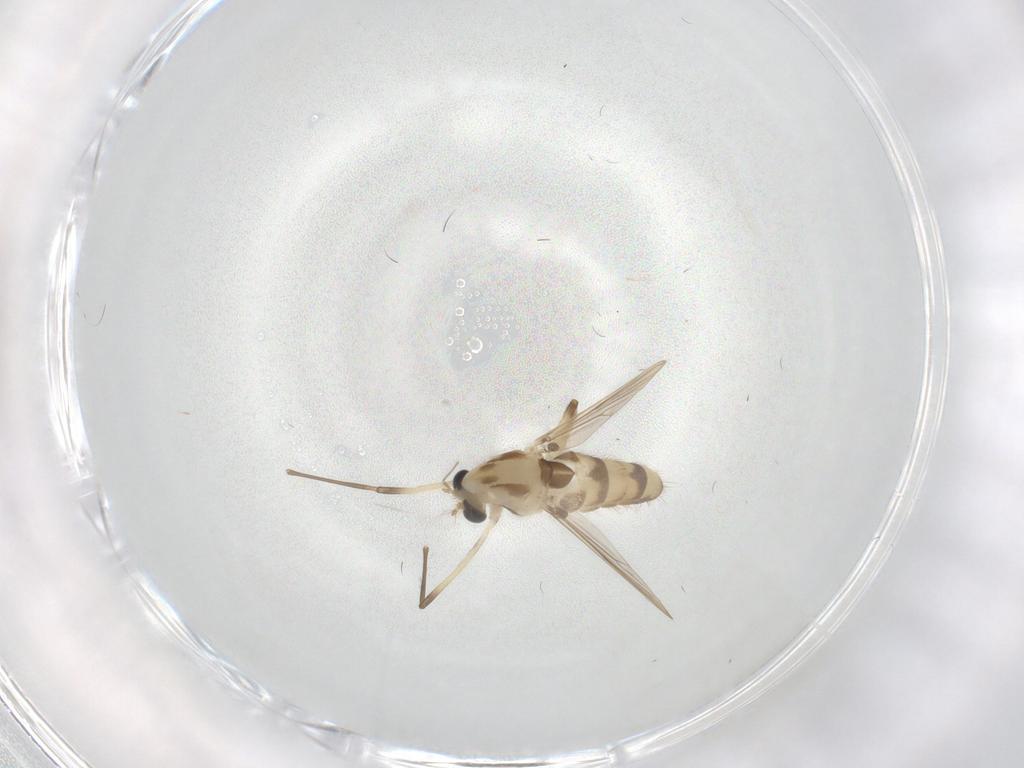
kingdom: Animalia
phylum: Arthropoda
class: Insecta
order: Diptera
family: Chironomidae
